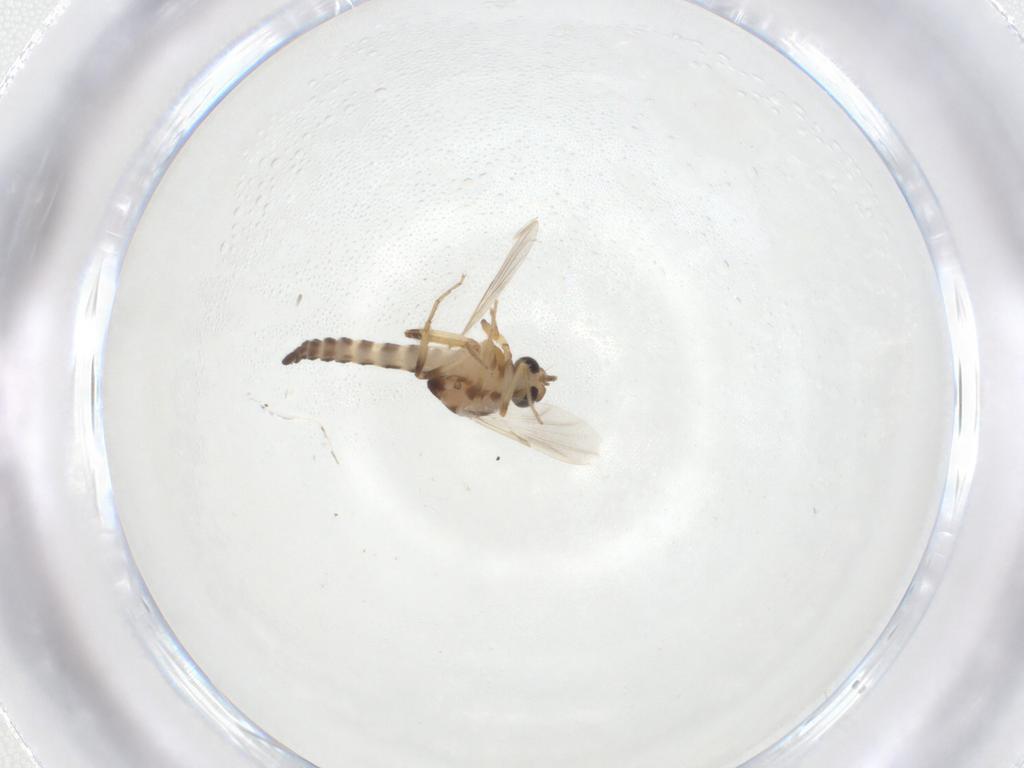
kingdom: Animalia
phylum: Arthropoda
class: Insecta
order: Diptera
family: Ceratopogonidae
